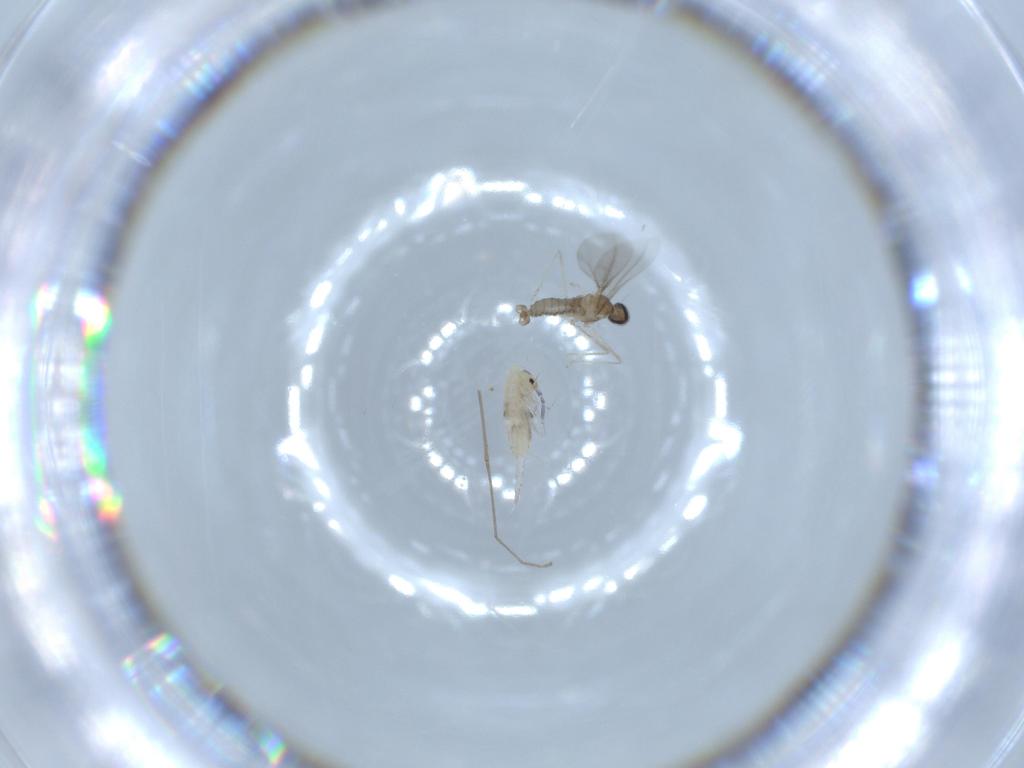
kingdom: Animalia
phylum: Arthropoda
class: Insecta
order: Diptera
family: Cecidomyiidae
